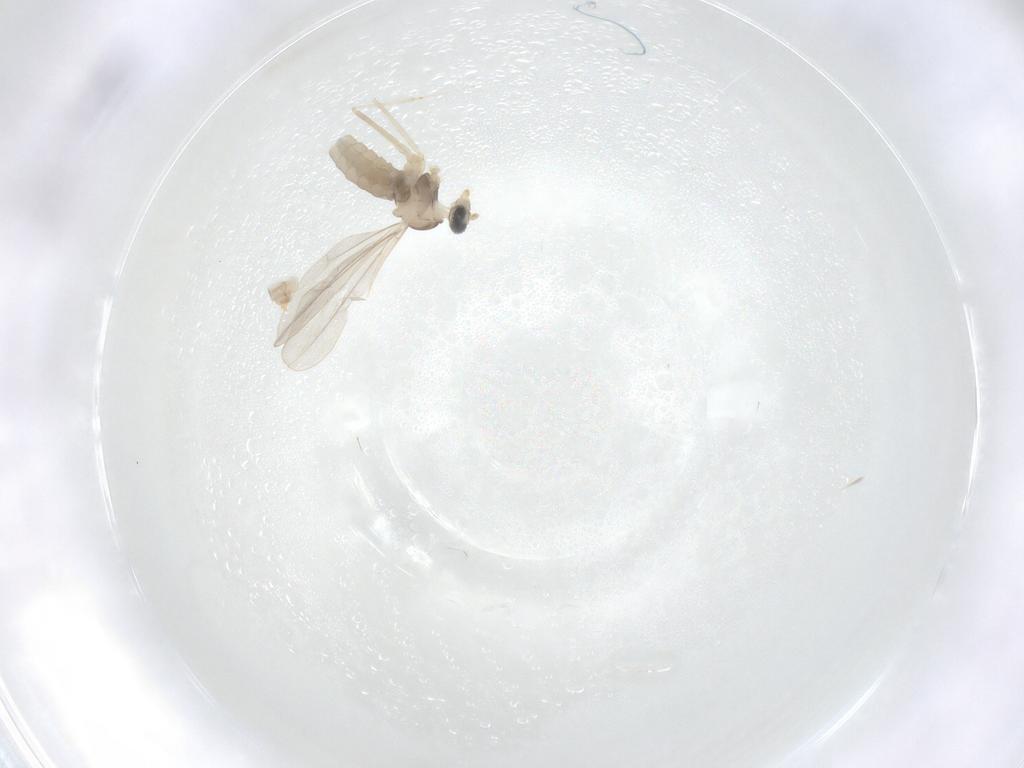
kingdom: Animalia
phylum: Arthropoda
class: Insecta
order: Diptera
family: Cecidomyiidae
